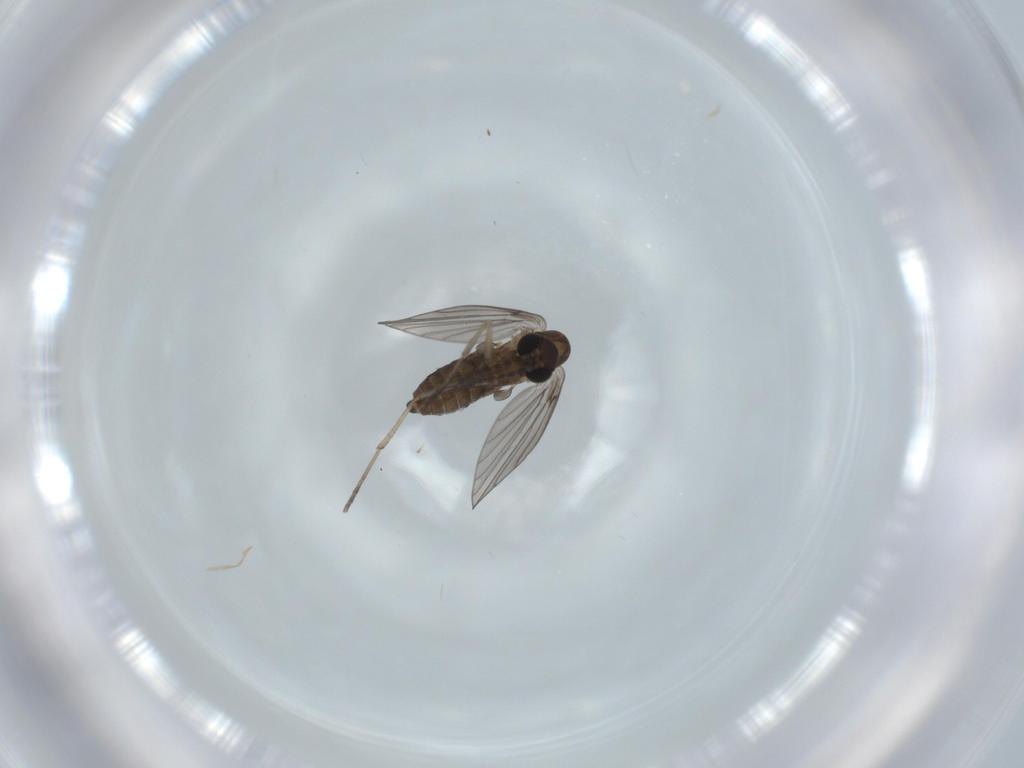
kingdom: Animalia
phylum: Arthropoda
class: Insecta
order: Diptera
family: Psychodidae
